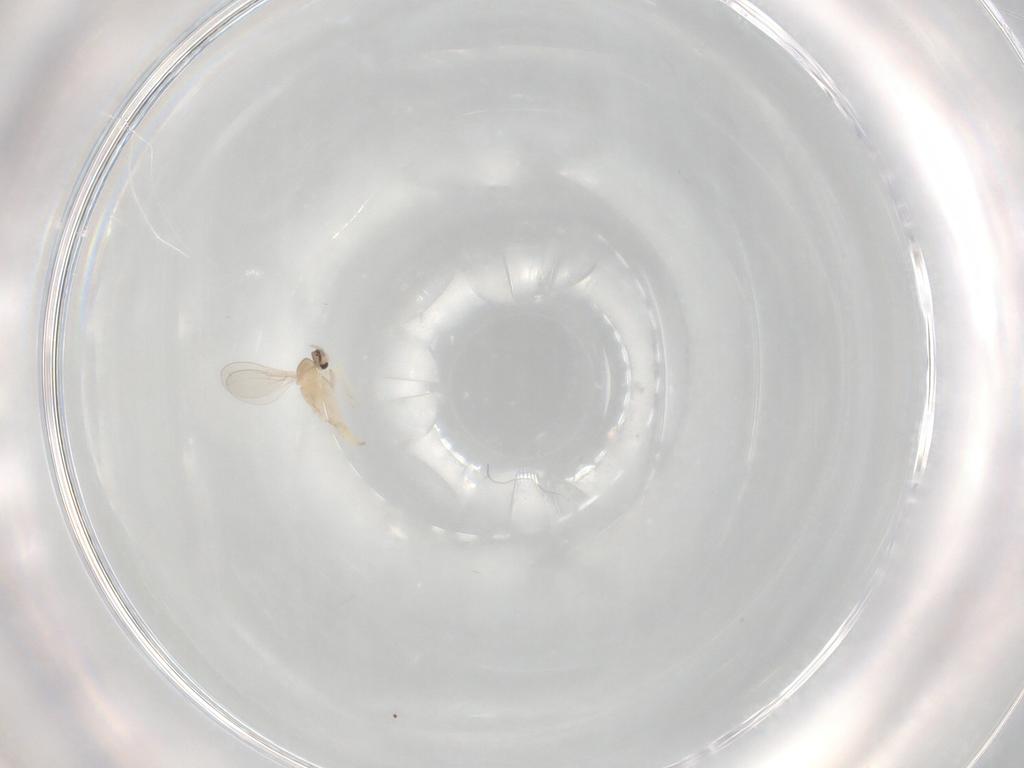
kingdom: Animalia
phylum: Arthropoda
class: Insecta
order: Diptera
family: Cecidomyiidae
